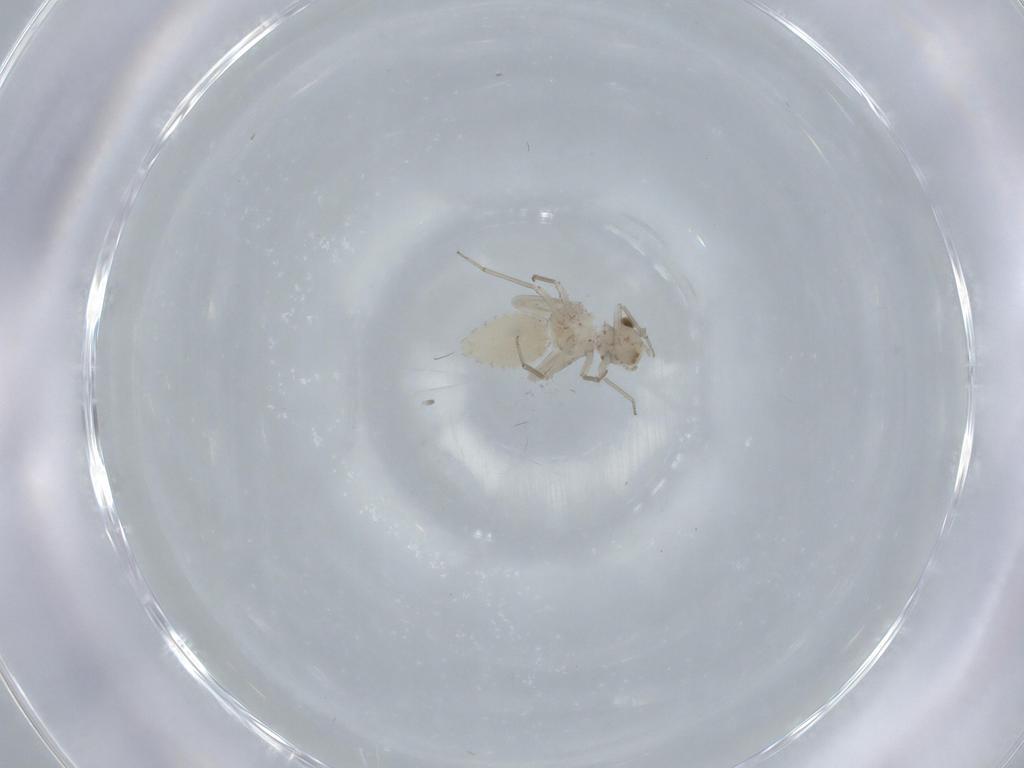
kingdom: Animalia
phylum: Arthropoda
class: Insecta
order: Psocodea
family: Lachesillidae
